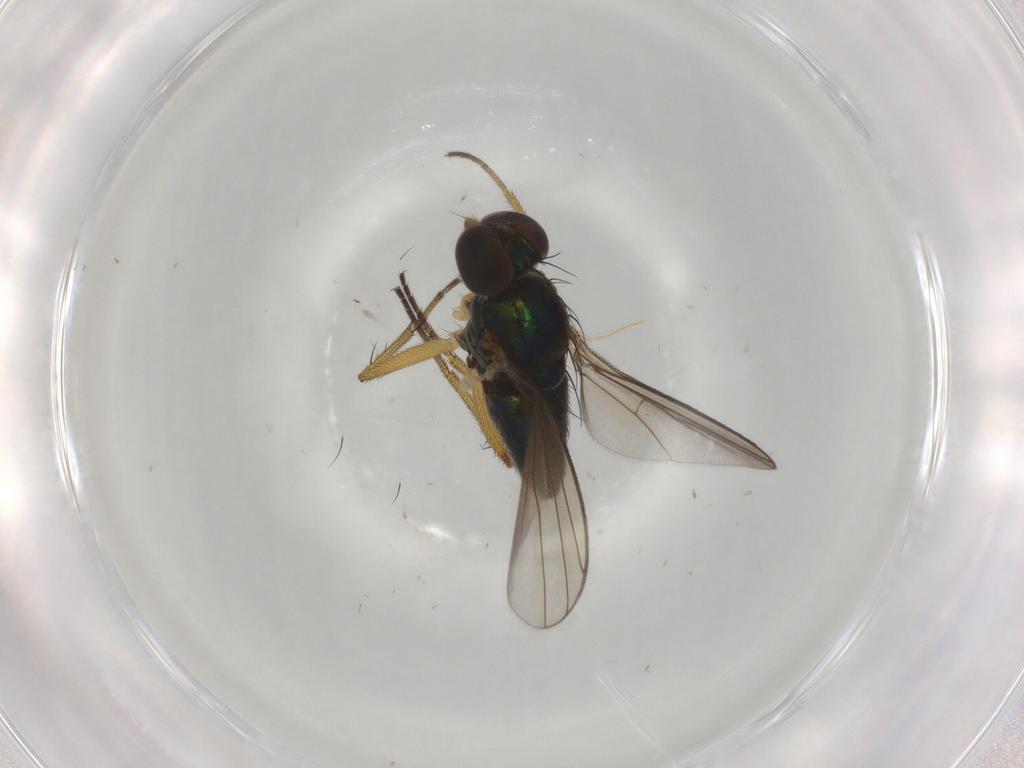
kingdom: Animalia
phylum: Arthropoda
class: Insecta
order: Diptera
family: Dolichopodidae
